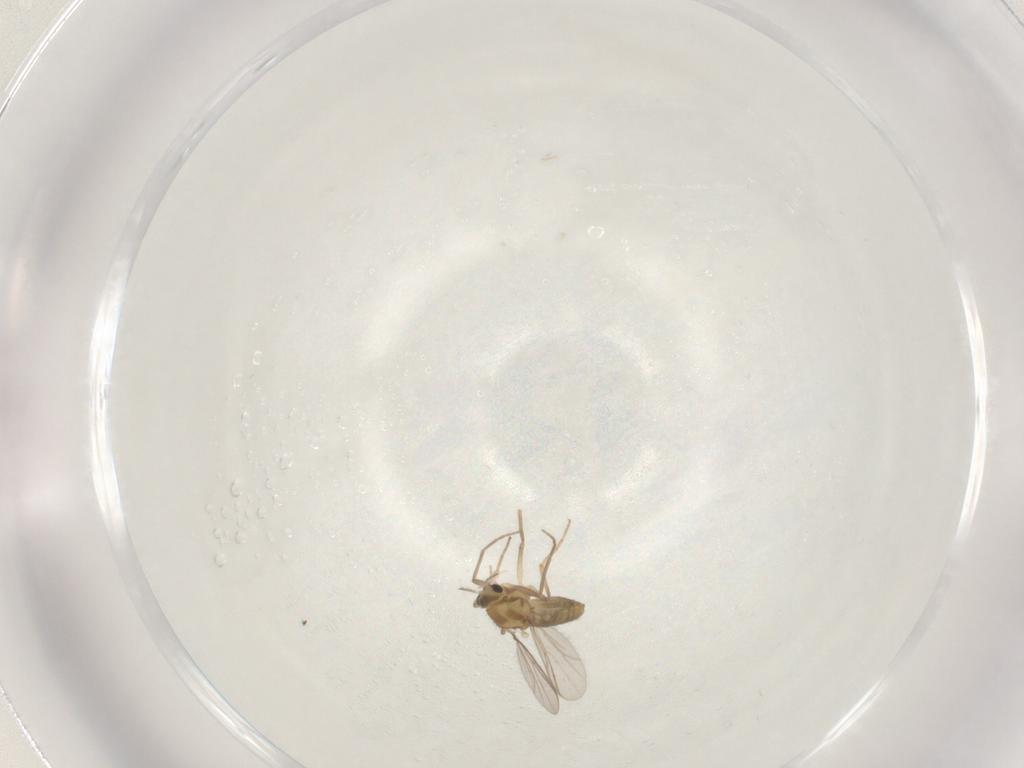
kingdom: Animalia
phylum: Arthropoda
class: Insecta
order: Diptera
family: Chironomidae
